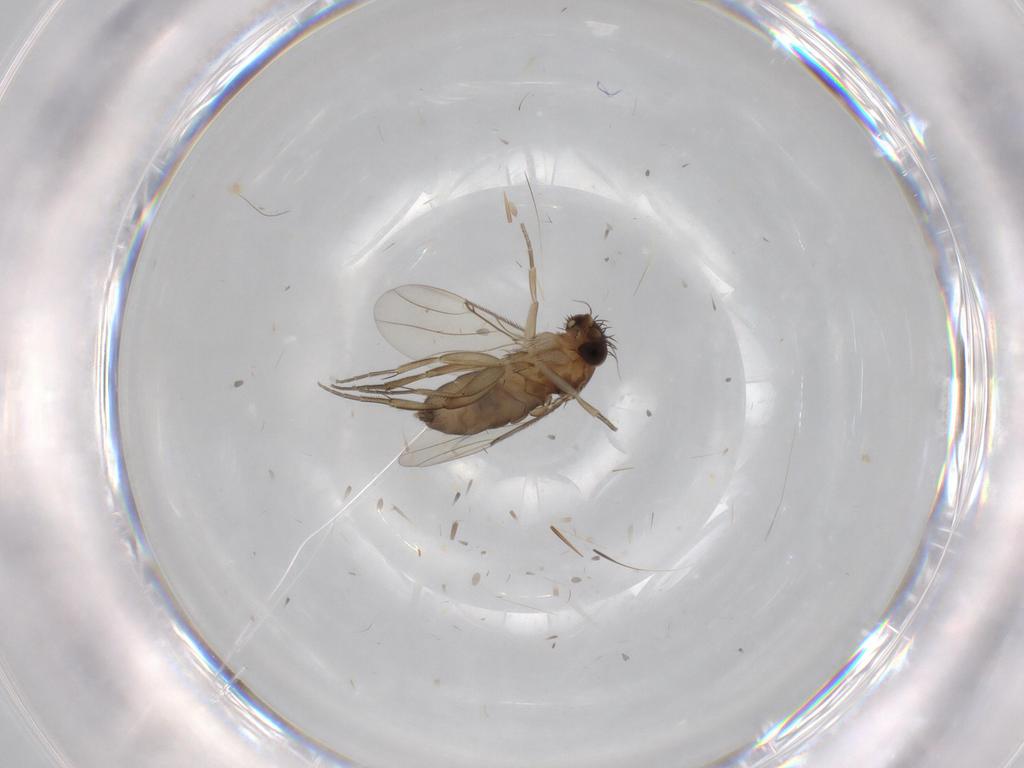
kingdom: Animalia
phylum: Arthropoda
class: Insecta
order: Diptera
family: Phoridae
